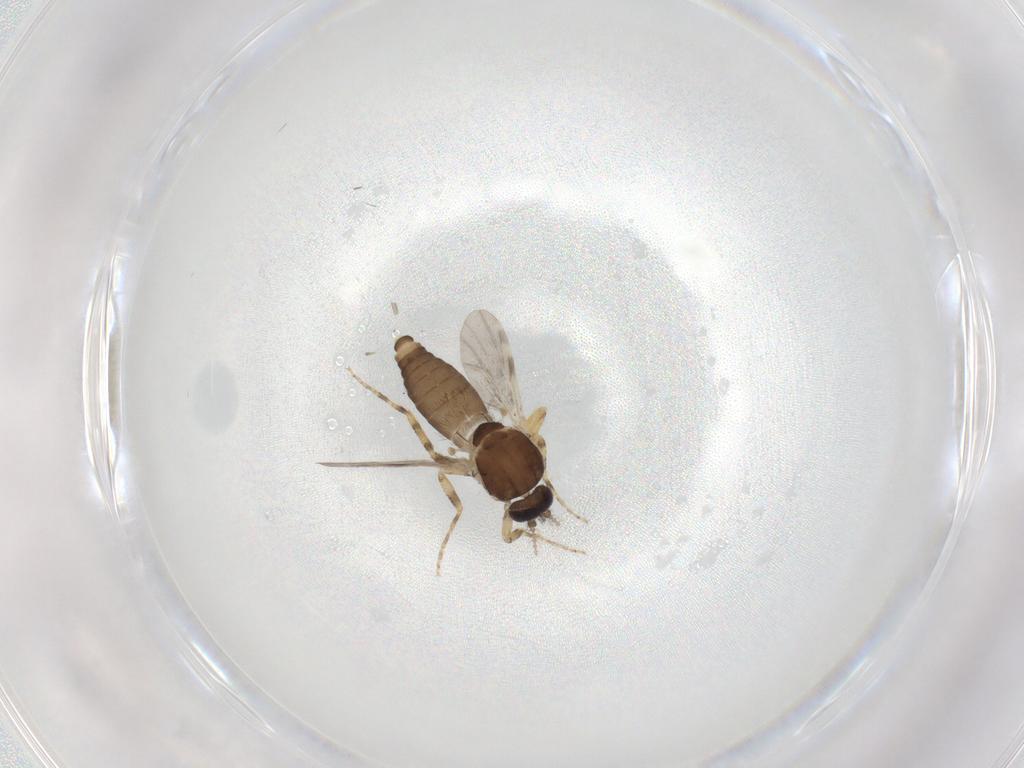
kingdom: Animalia
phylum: Arthropoda
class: Insecta
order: Diptera
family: Ceratopogonidae
